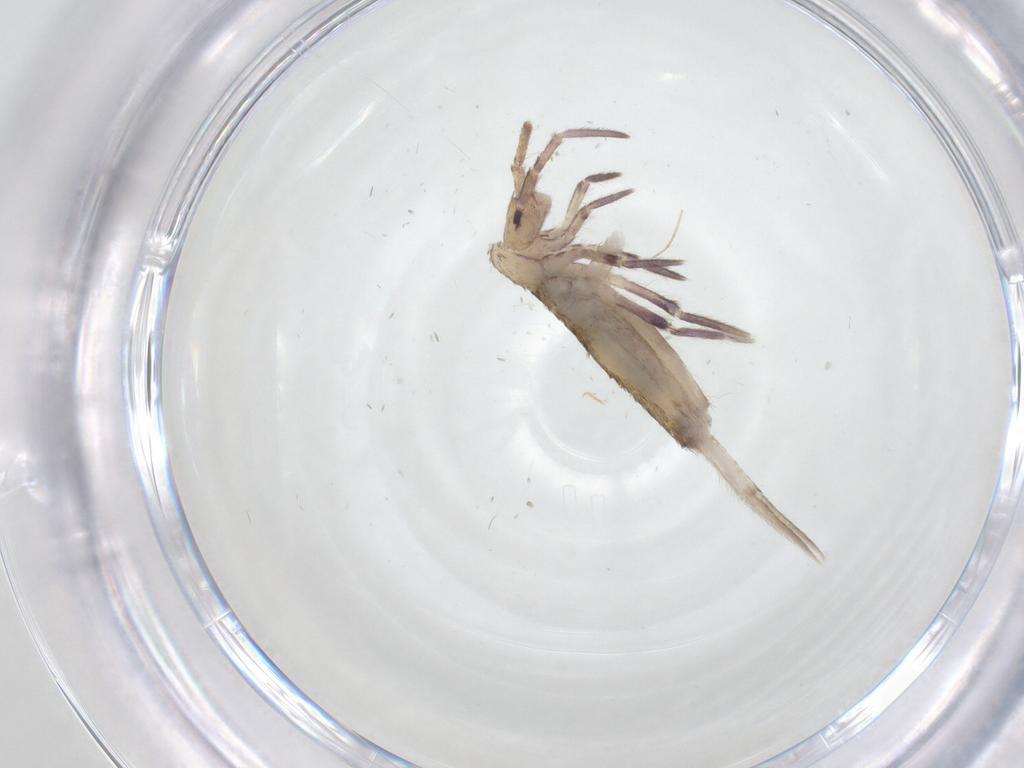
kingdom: Animalia
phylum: Arthropoda
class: Collembola
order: Entomobryomorpha
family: Entomobryidae
